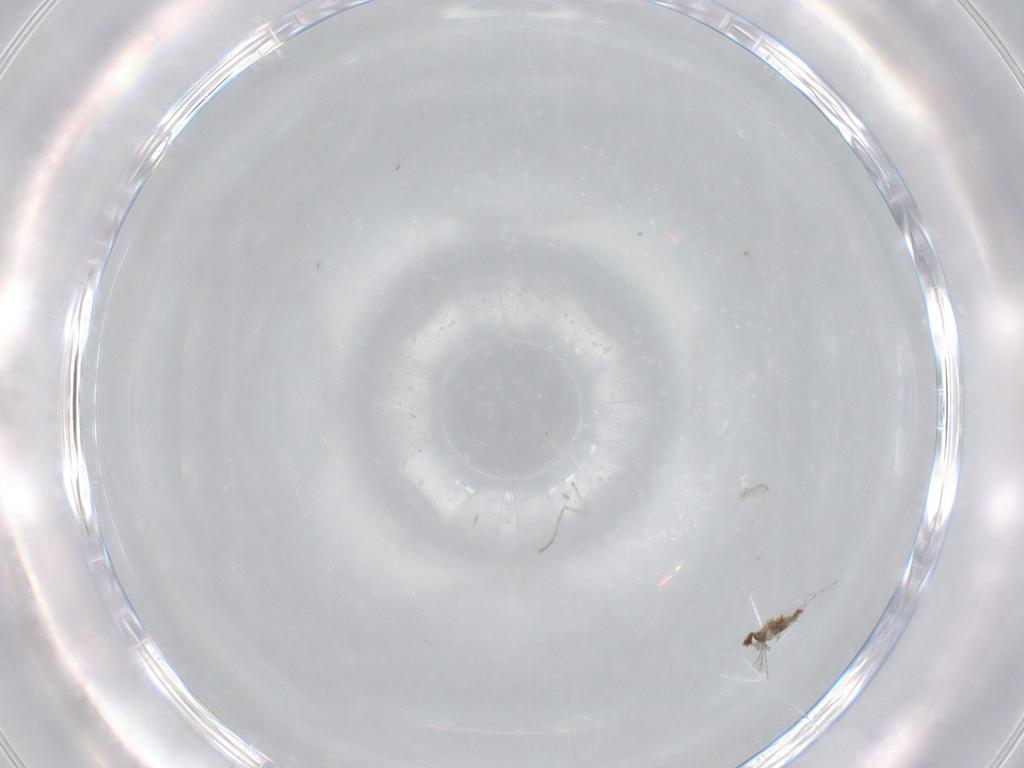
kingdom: Animalia
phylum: Arthropoda
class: Insecta
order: Diptera
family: Cecidomyiidae
